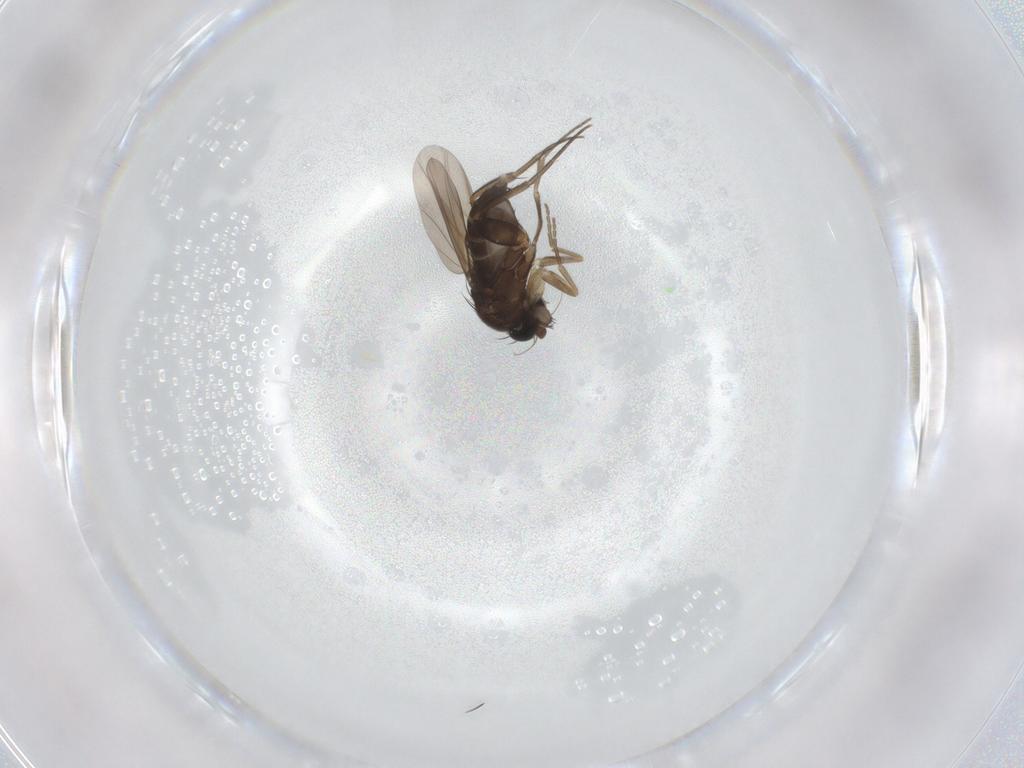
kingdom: Animalia
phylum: Arthropoda
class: Insecta
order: Diptera
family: Phoridae
